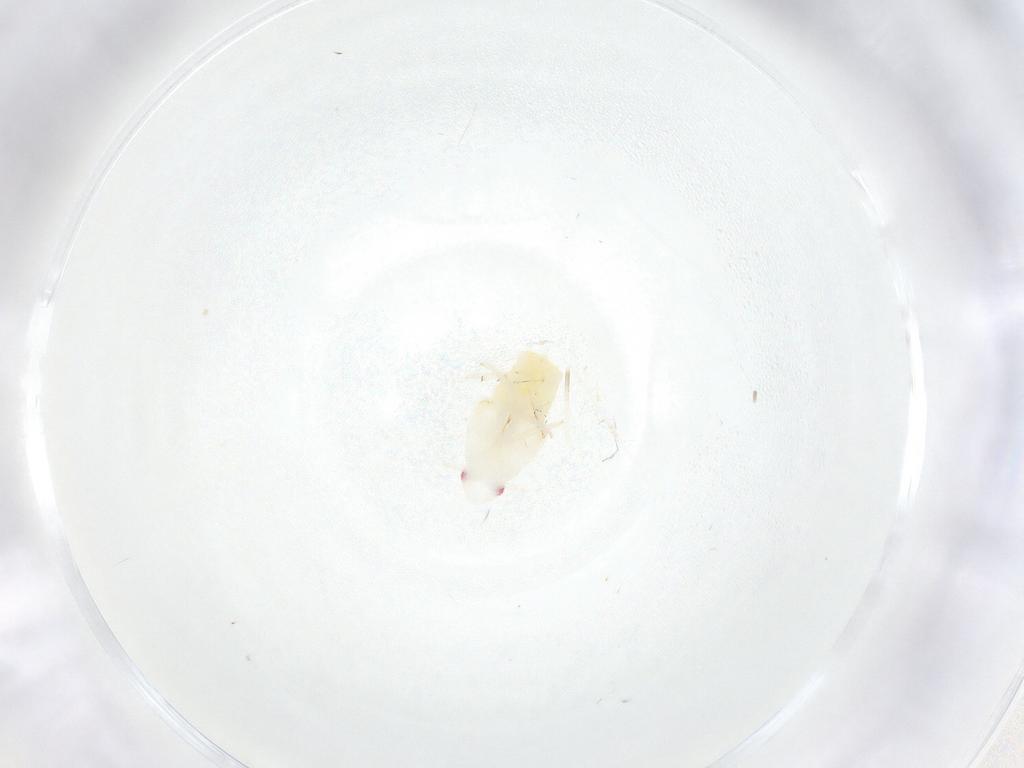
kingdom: Animalia
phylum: Arthropoda
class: Insecta
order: Hemiptera
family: Flatidae
